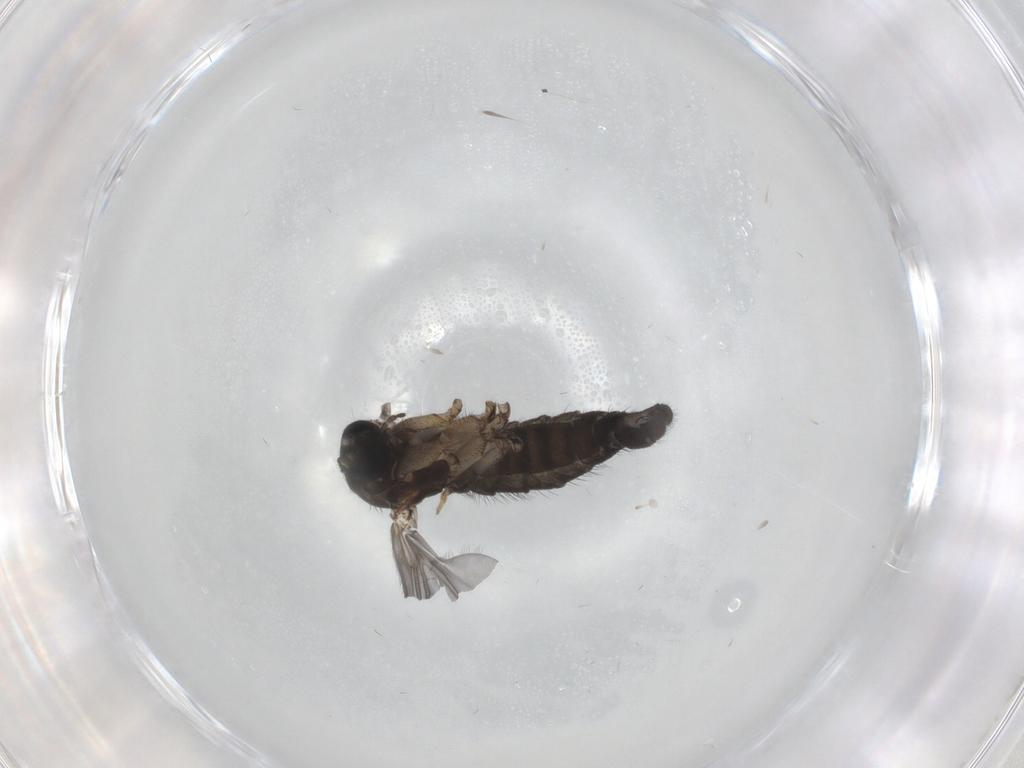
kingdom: Animalia
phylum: Arthropoda
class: Insecta
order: Diptera
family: Sciaridae
